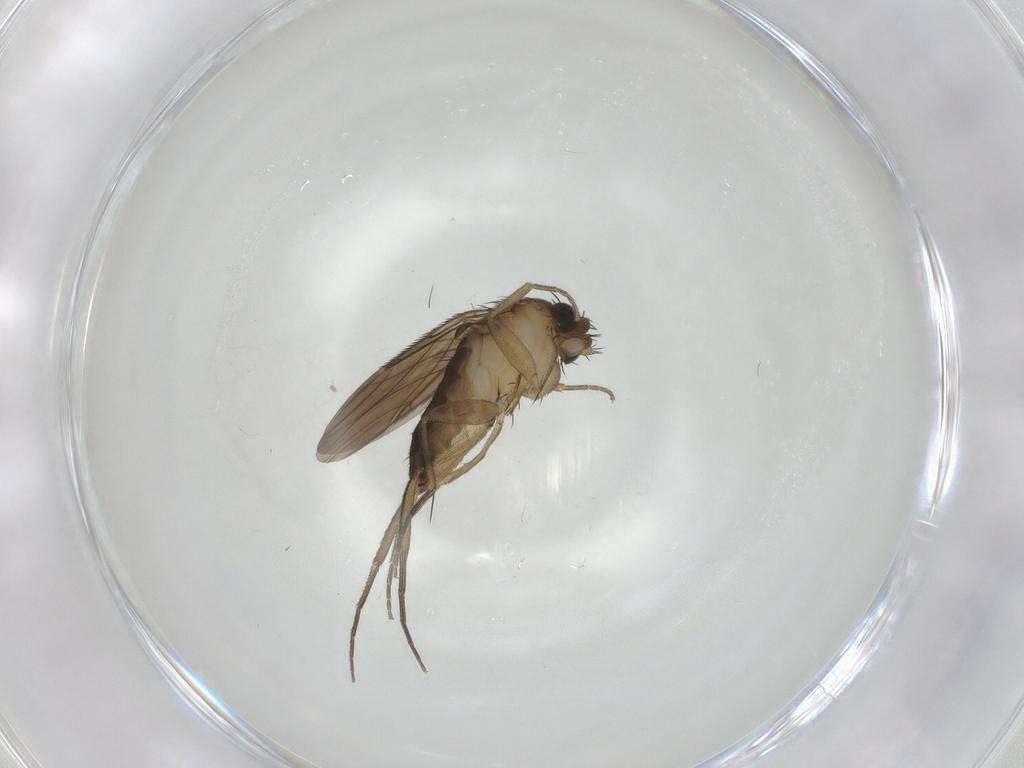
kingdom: Animalia
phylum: Arthropoda
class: Insecta
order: Diptera
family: Phoridae
